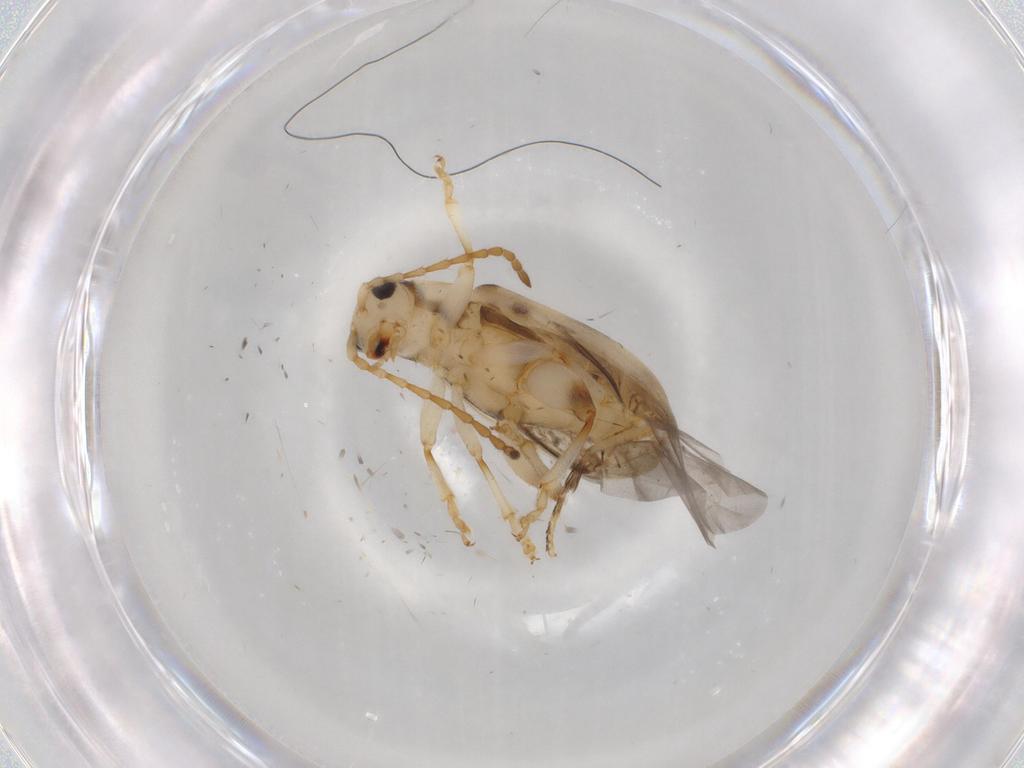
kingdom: Animalia
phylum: Arthropoda
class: Insecta
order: Coleoptera
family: Chrysomelidae
